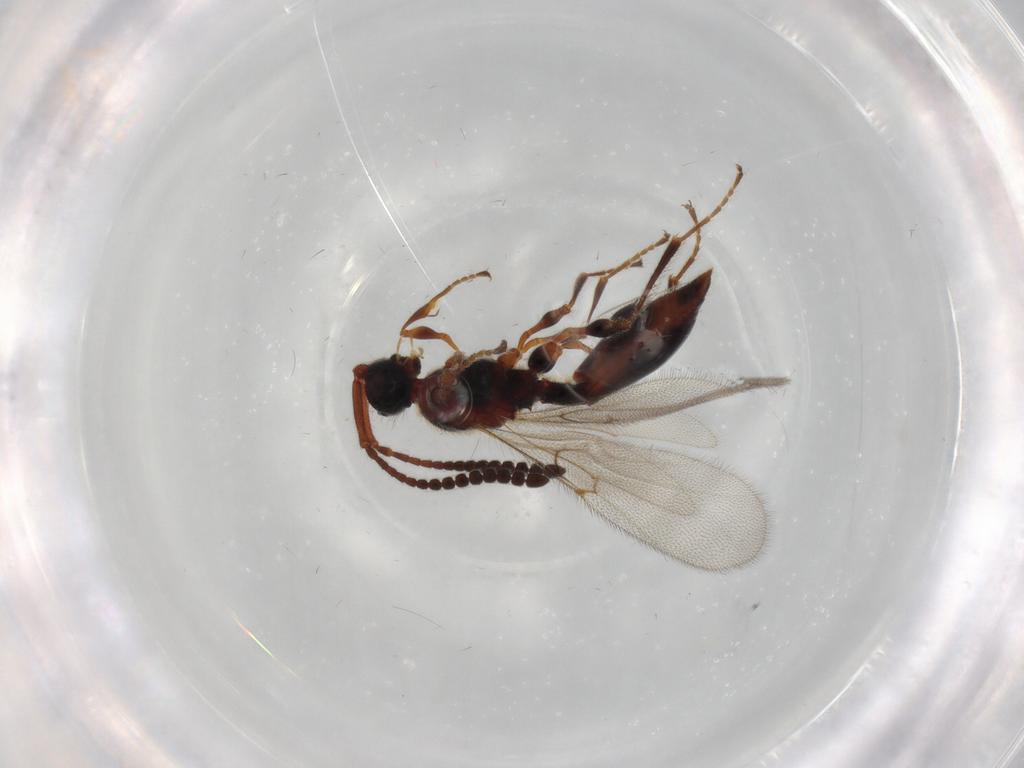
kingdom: Animalia
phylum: Arthropoda
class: Insecta
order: Hymenoptera
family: Diapriidae
